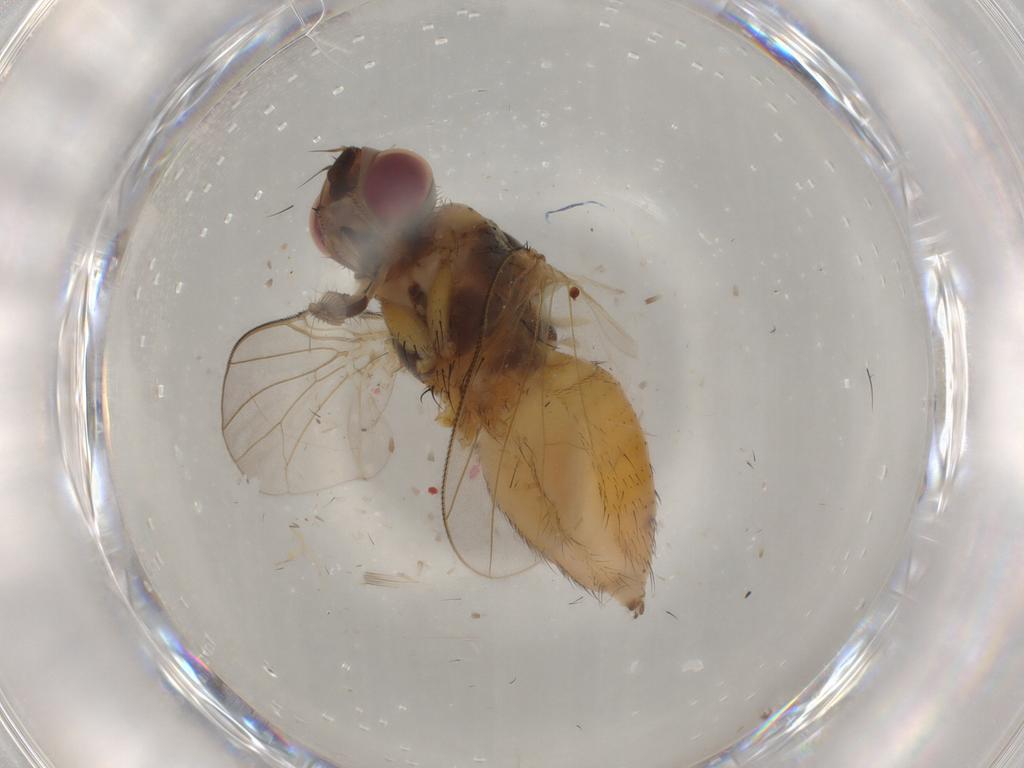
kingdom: Animalia
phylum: Arthropoda
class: Insecta
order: Diptera
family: Muscidae
